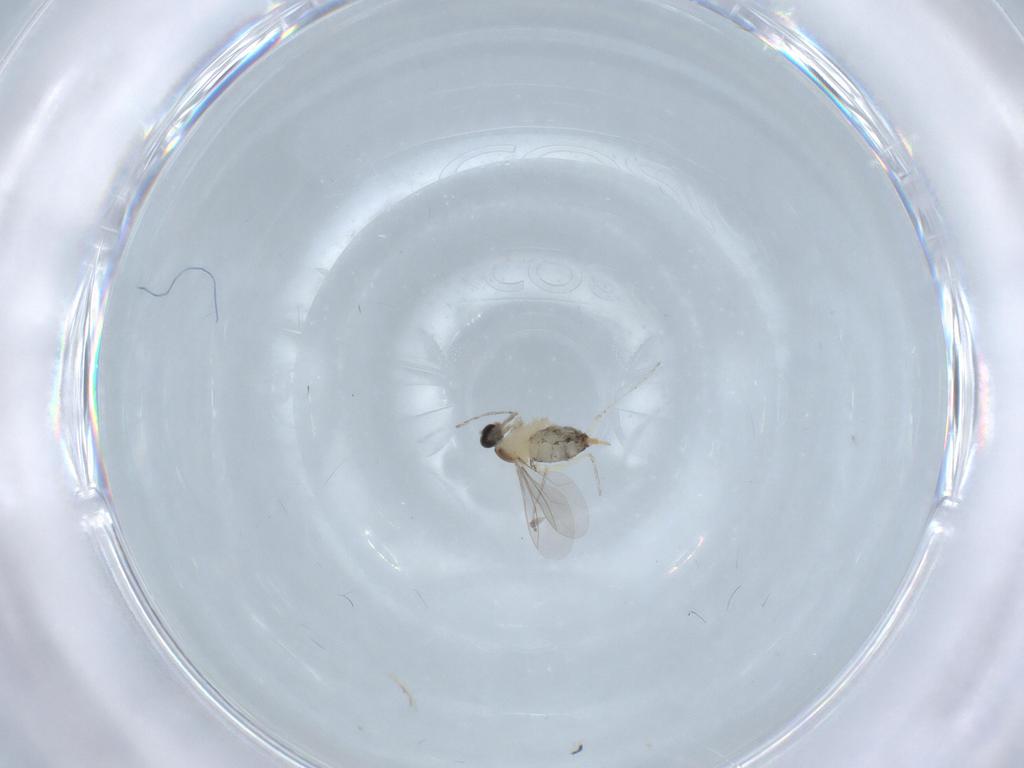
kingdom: Animalia
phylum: Arthropoda
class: Insecta
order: Diptera
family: Cecidomyiidae
